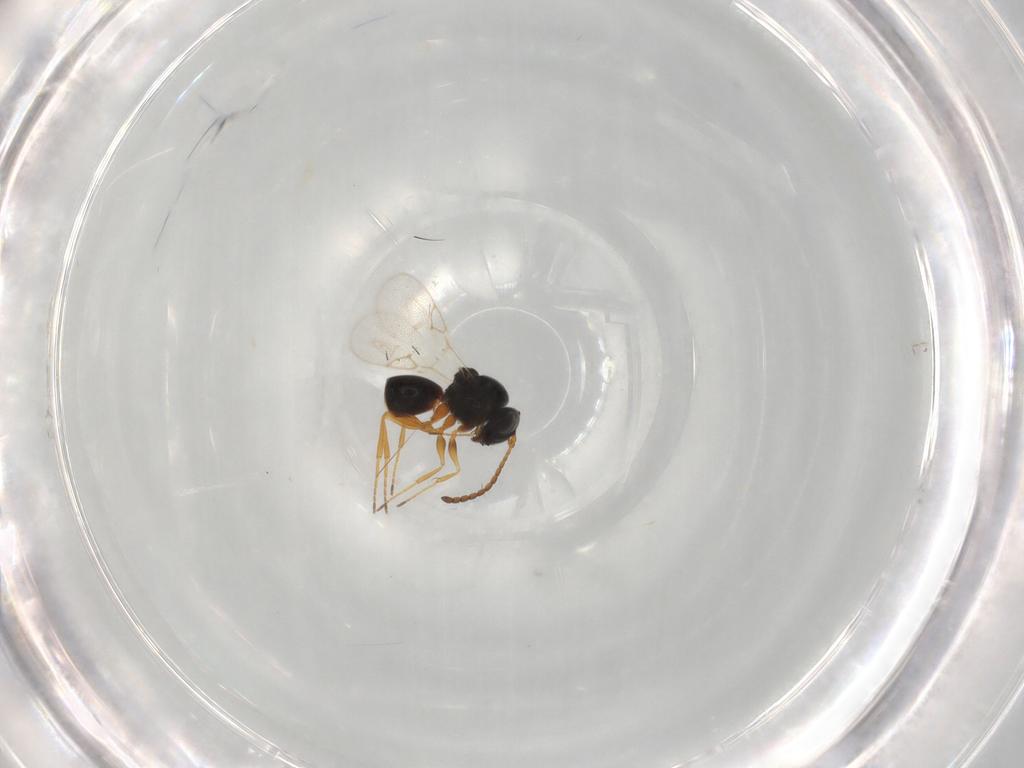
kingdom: Animalia
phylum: Arthropoda
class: Insecta
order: Hymenoptera
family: Figitidae
